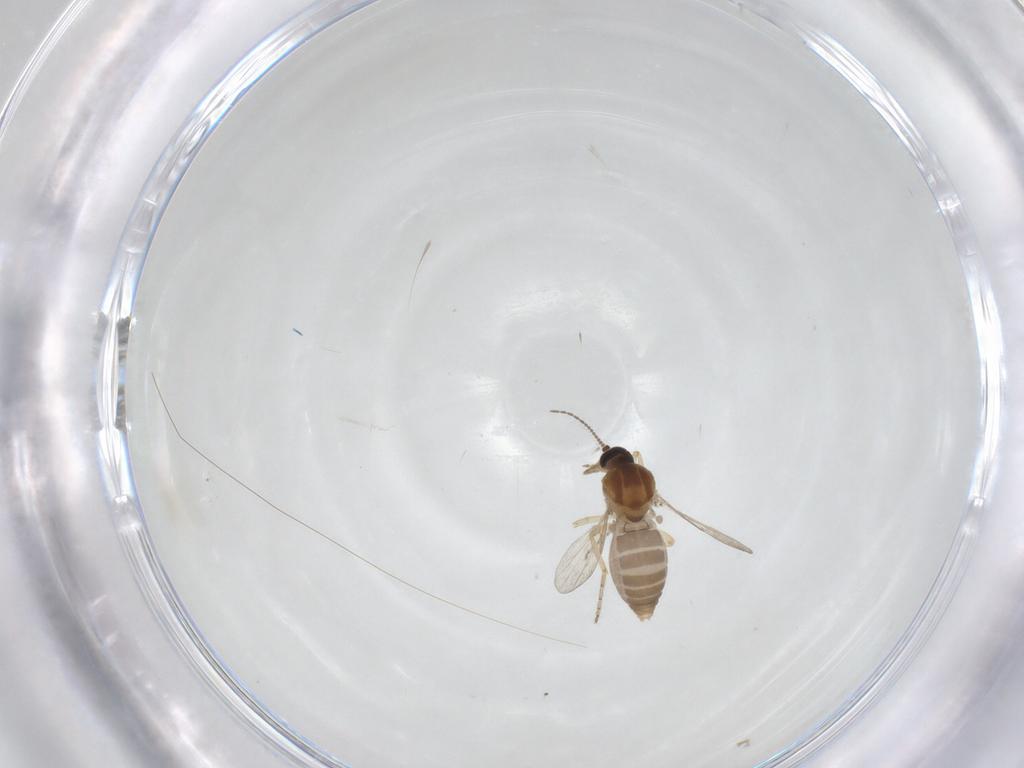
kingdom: Animalia
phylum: Arthropoda
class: Insecta
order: Diptera
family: Ceratopogonidae
